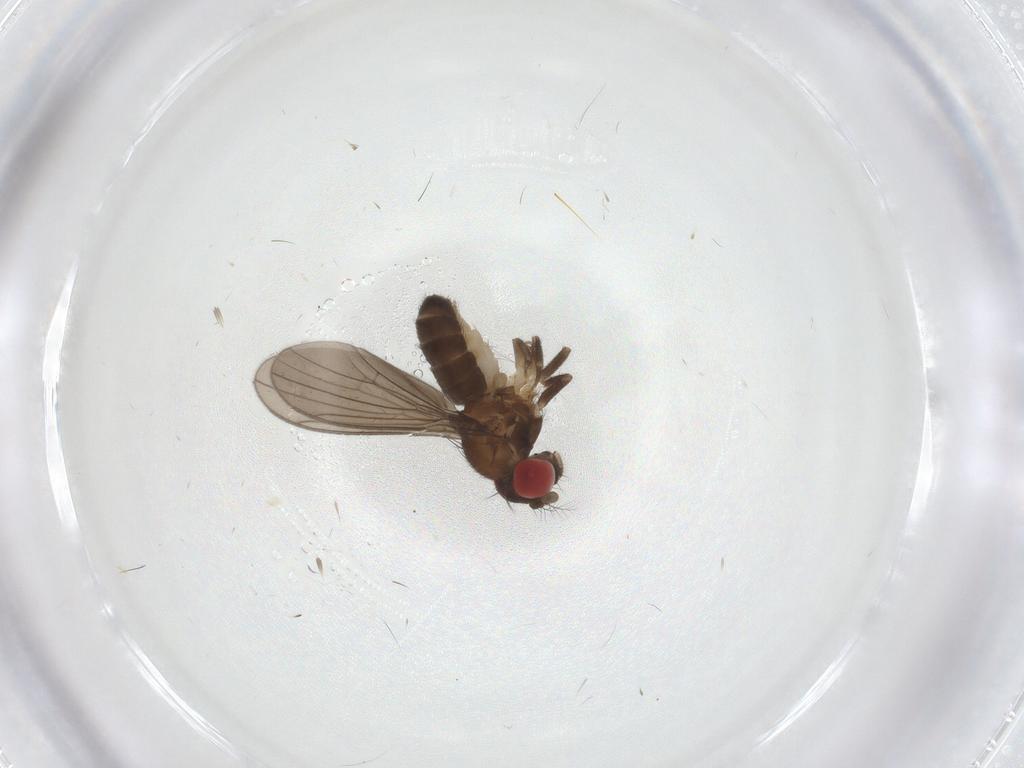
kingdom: Animalia
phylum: Arthropoda
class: Insecta
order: Diptera
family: Drosophilidae
